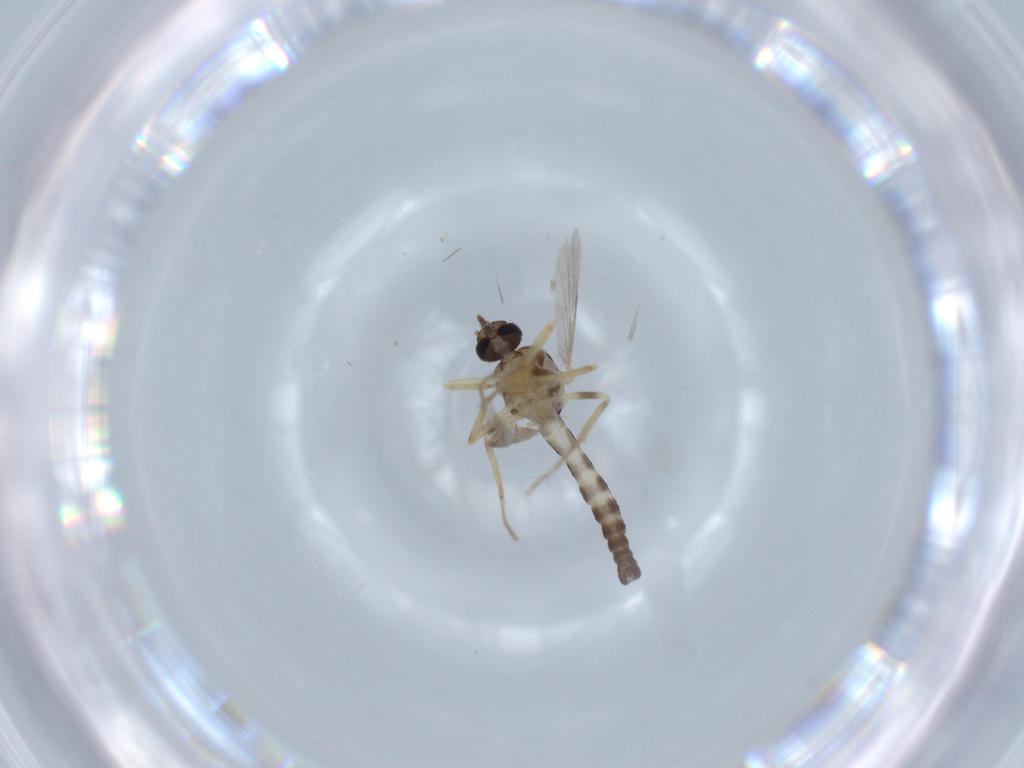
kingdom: Animalia
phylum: Arthropoda
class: Insecta
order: Diptera
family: Ceratopogonidae
